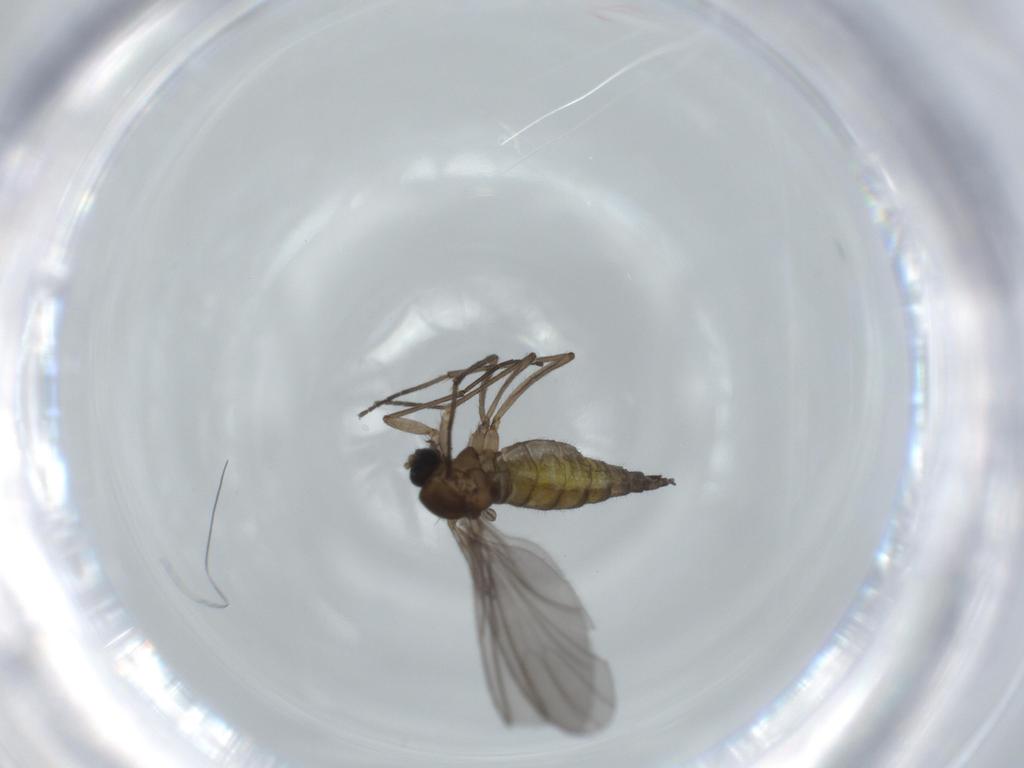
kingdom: Animalia
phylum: Arthropoda
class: Insecta
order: Diptera
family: Sciaridae
